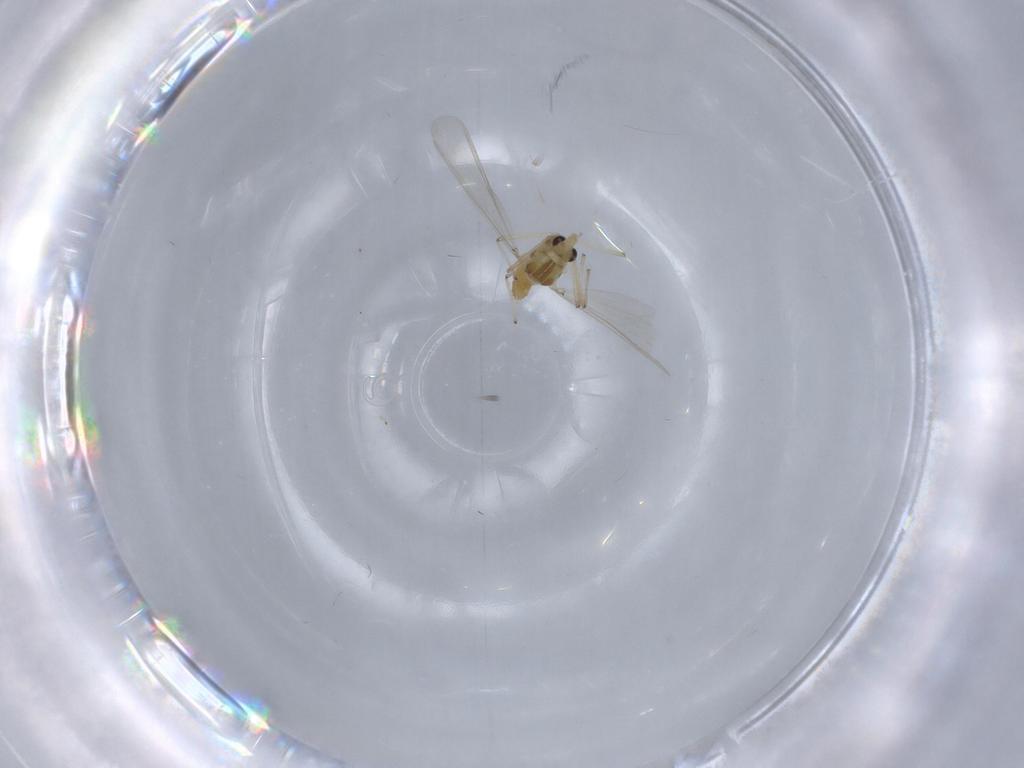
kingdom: Animalia
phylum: Arthropoda
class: Insecta
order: Diptera
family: Chironomidae
